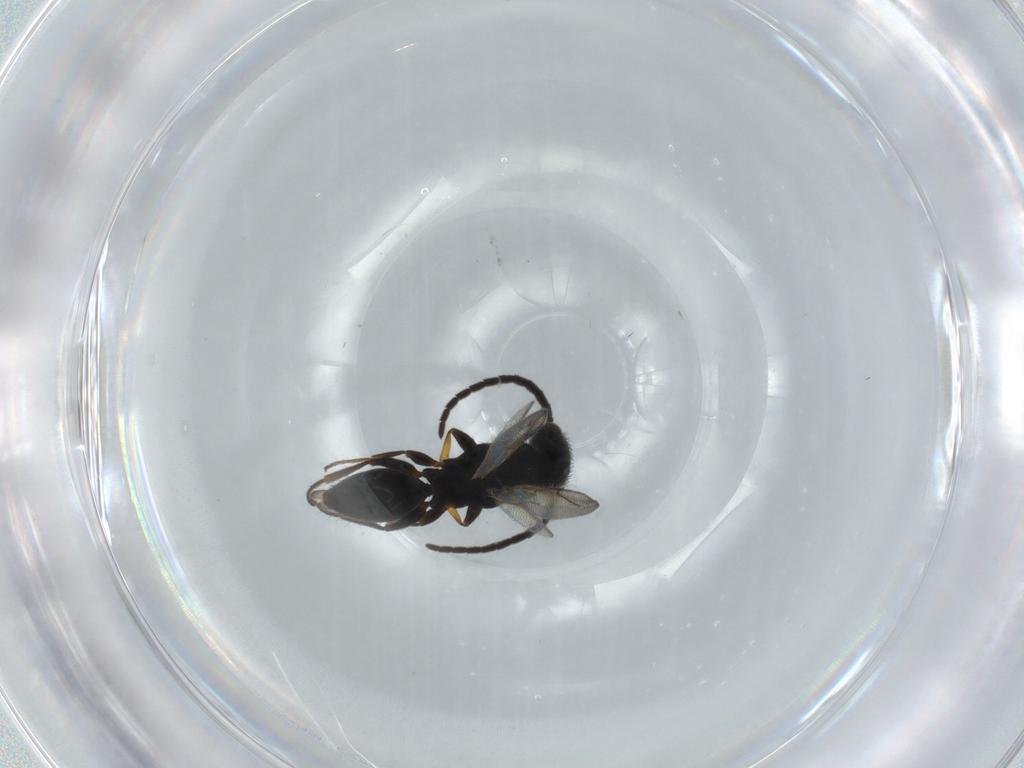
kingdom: Animalia
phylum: Arthropoda
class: Insecta
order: Hymenoptera
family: Bethylidae
